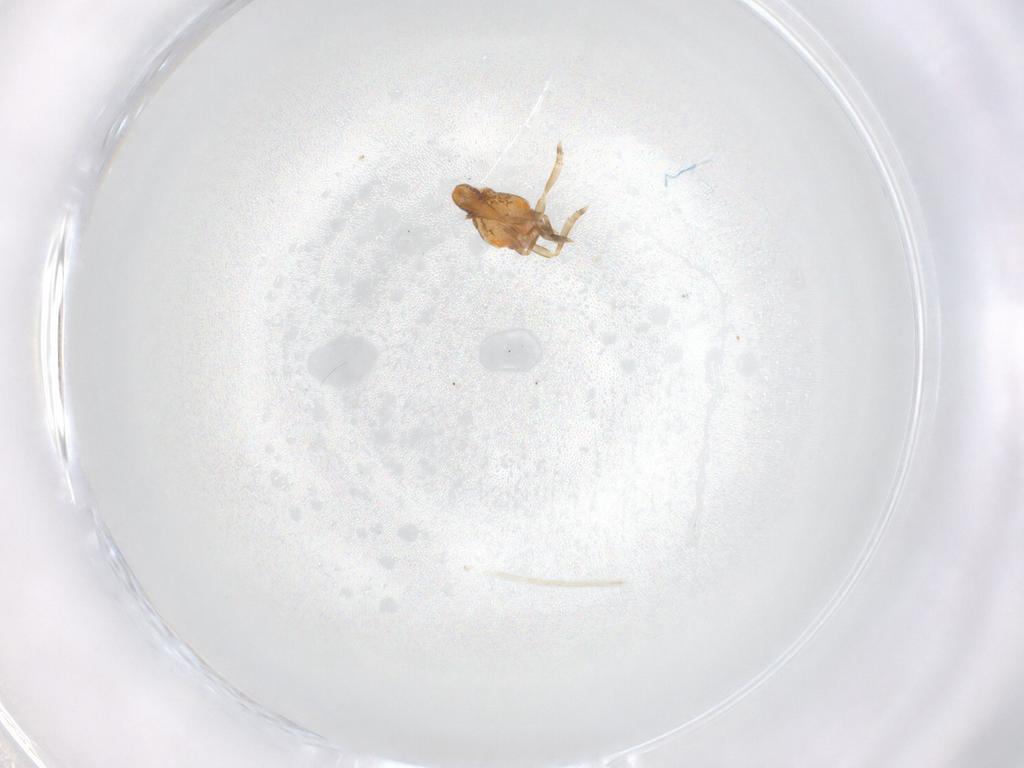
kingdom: Animalia
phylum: Arthropoda
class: Insecta
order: Hemiptera
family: Flatidae
